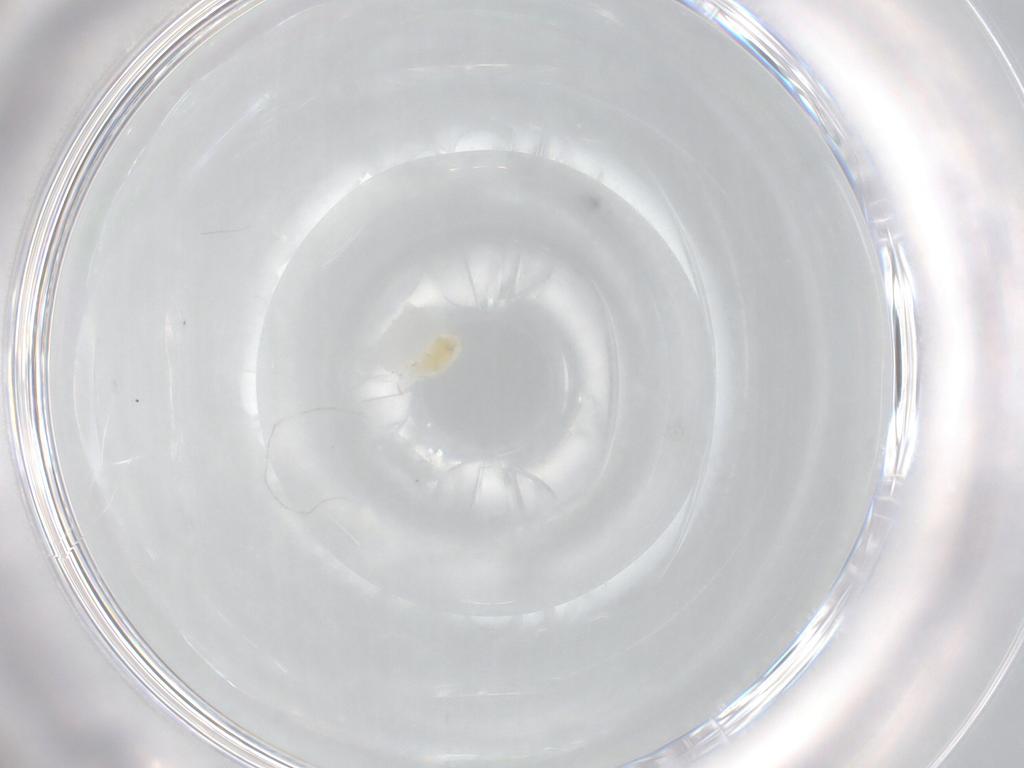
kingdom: Animalia
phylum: Arthropoda
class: Arachnida
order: Trombidiformes
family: Eupodidae
